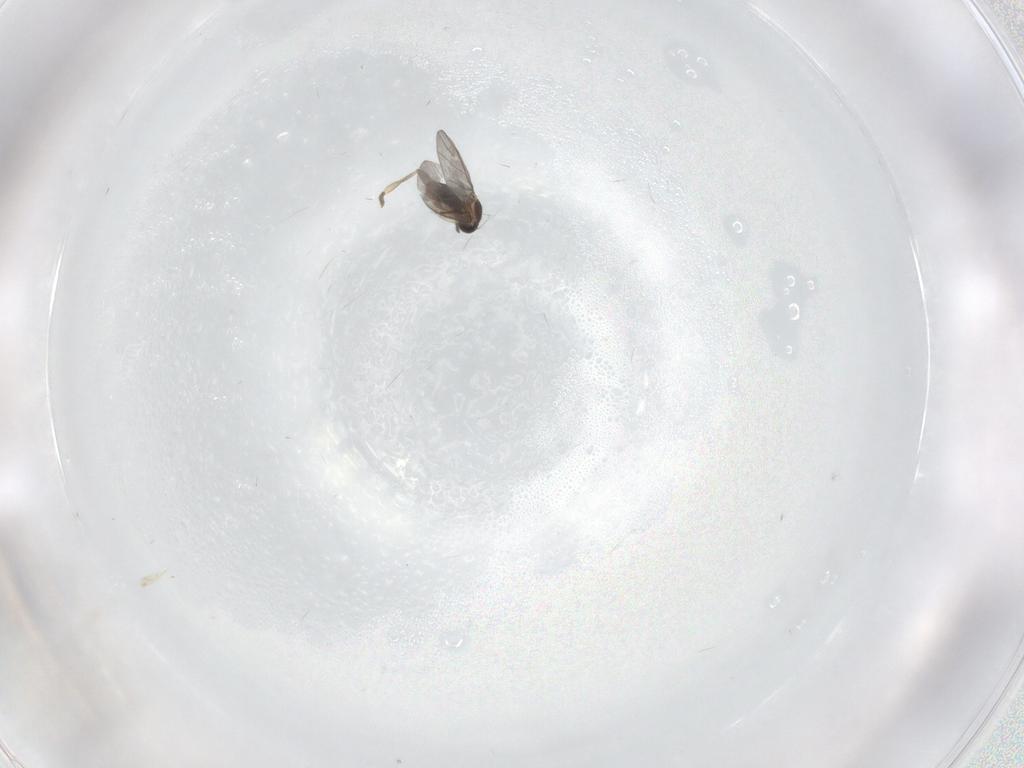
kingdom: Animalia
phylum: Arthropoda
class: Insecta
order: Diptera
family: Limoniidae
